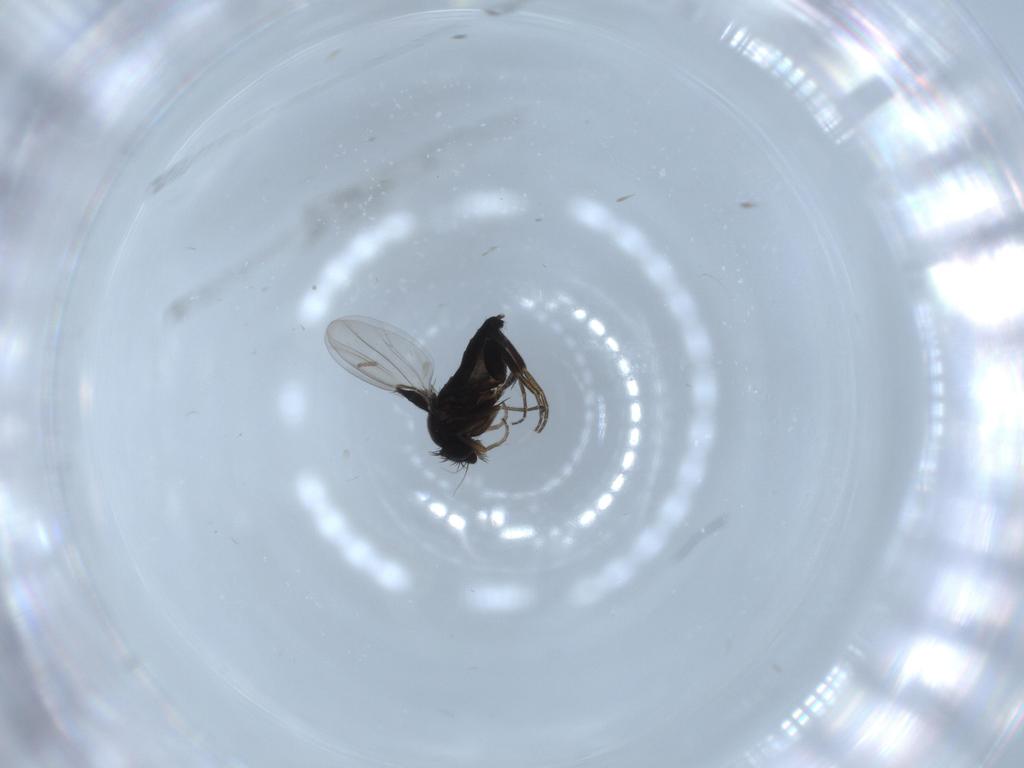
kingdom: Animalia
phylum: Arthropoda
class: Insecta
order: Diptera
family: Phoridae
